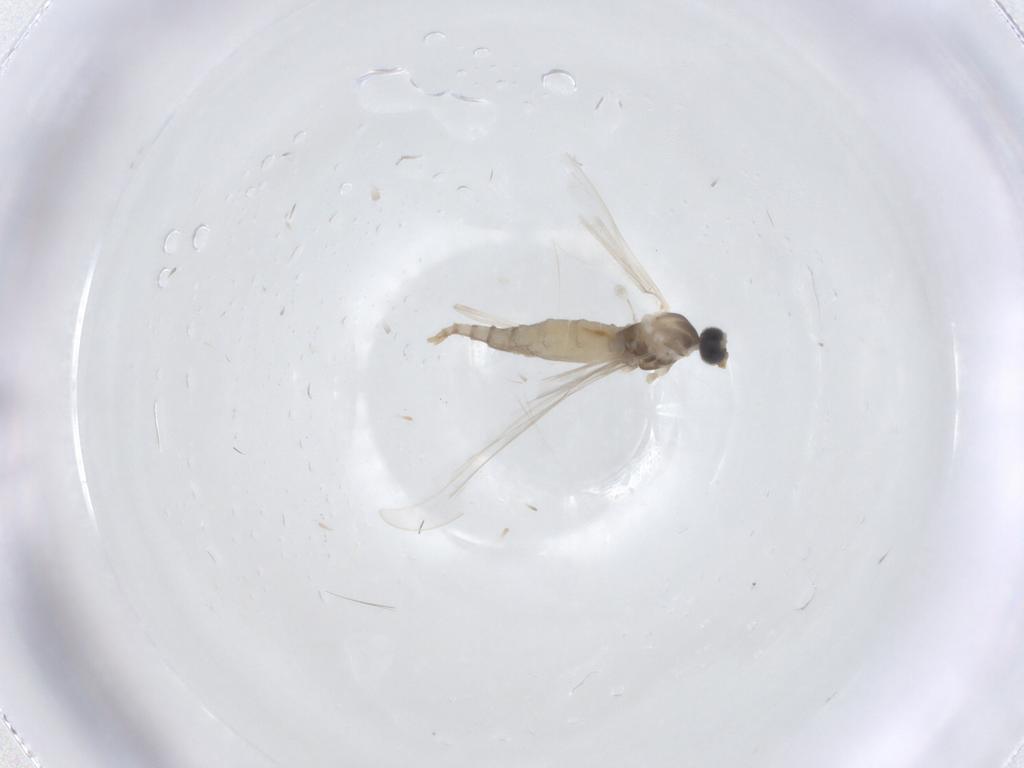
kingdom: Animalia
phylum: Arthropoda
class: Insecta
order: Diptera
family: Cecidomyiidae
